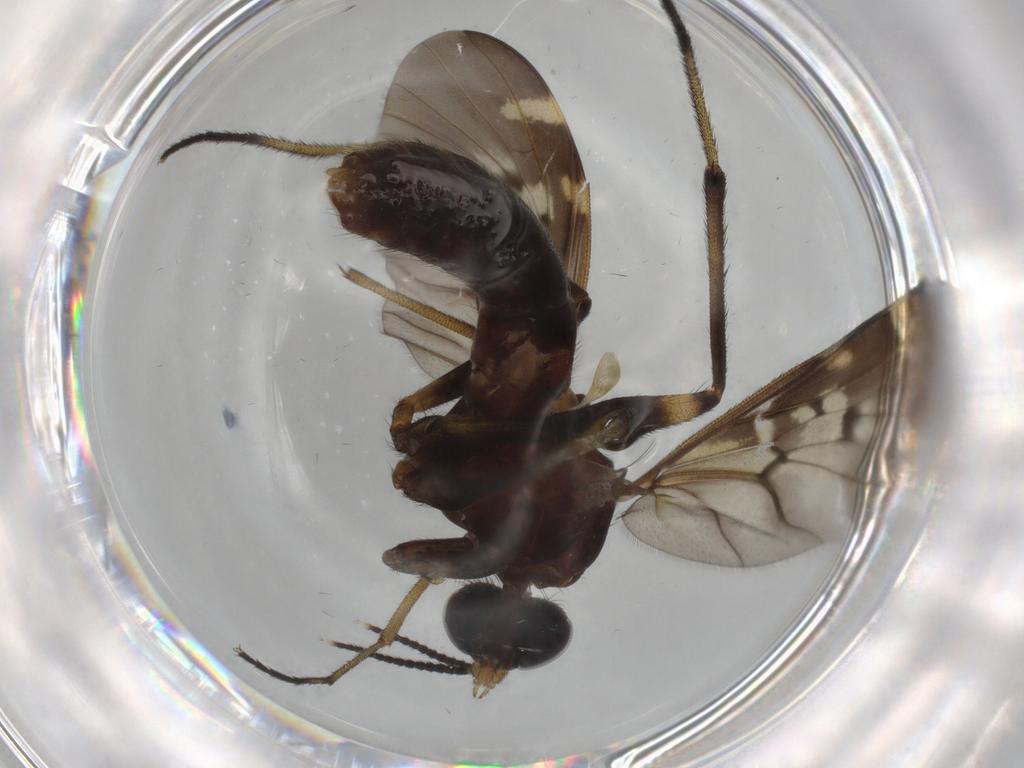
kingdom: Animalia
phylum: Arthropoda
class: Insecta
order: Diptera
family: Anisopodidae
